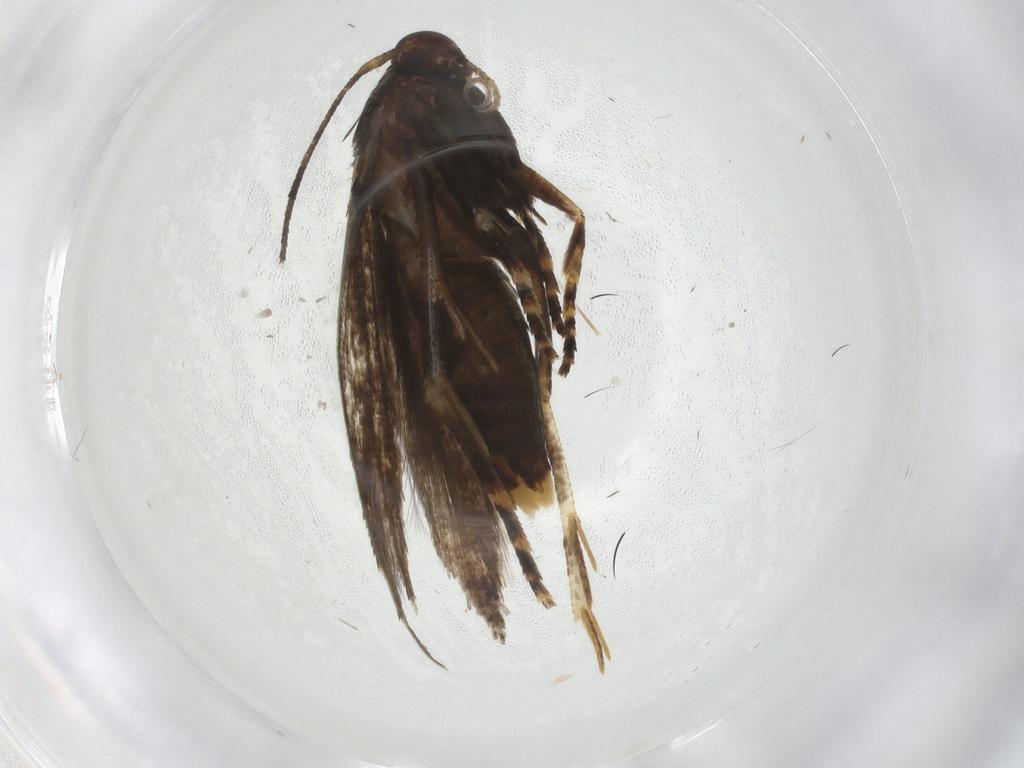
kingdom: Animalia
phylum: Arthropoda
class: Insecta
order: Lepidoptera
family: Momphidae
